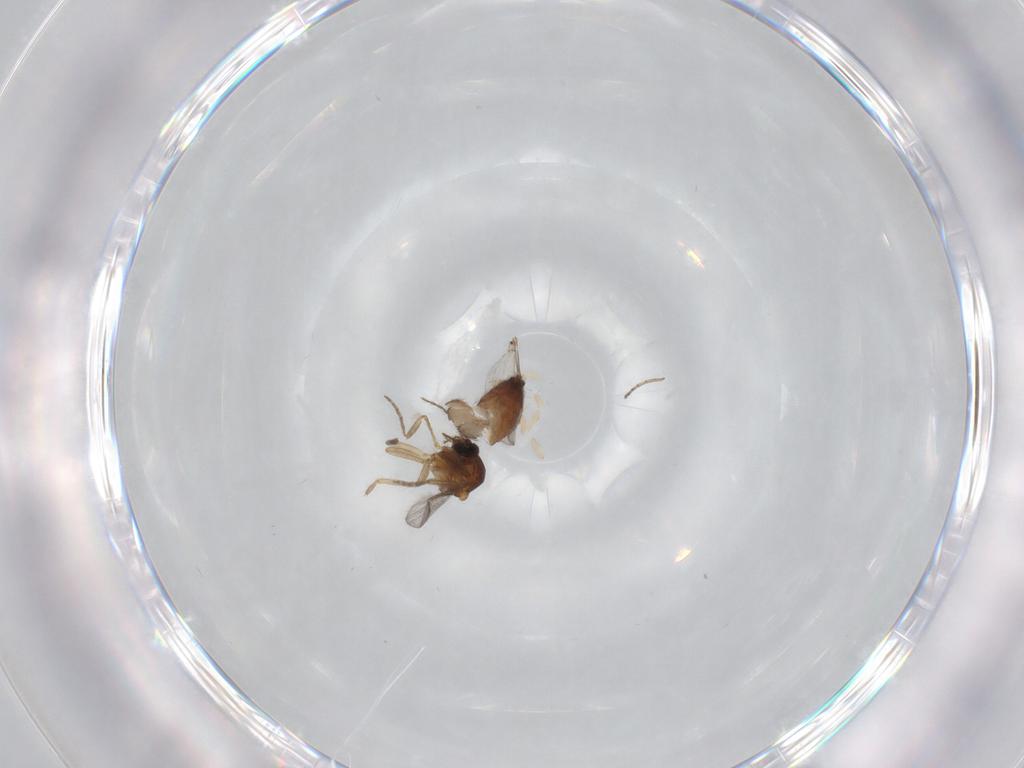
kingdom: Animalia
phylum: Arthropoda
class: Insecta
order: Diptera
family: Ceratopogonidae
